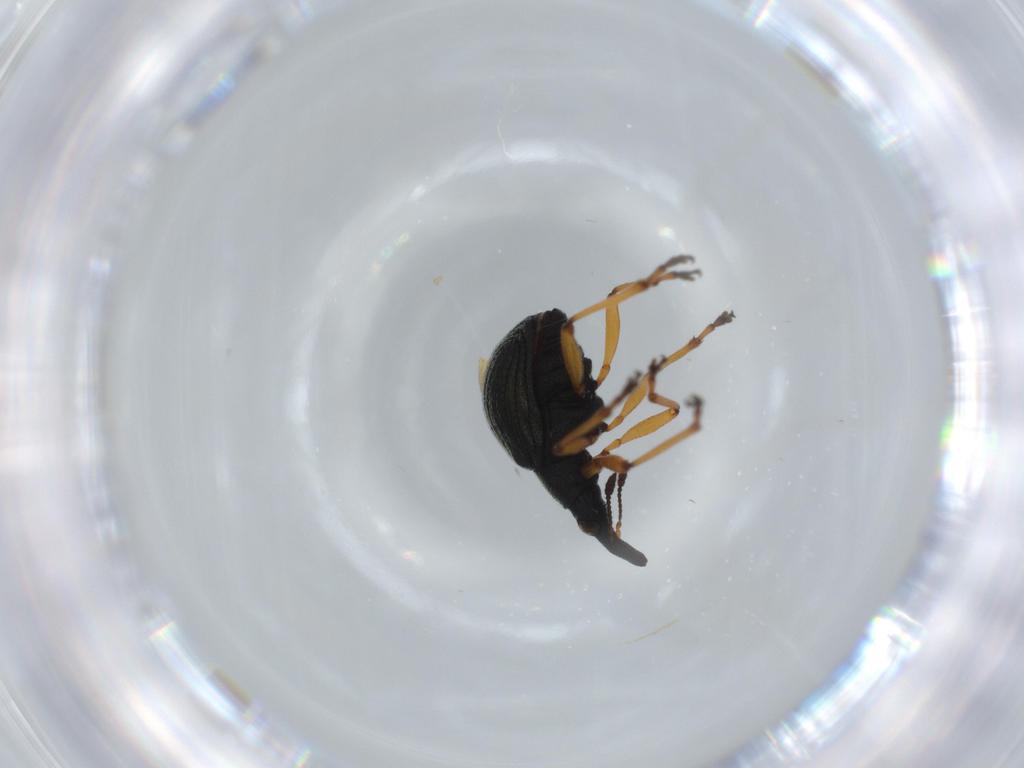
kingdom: Animalia
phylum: Arthropoda
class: Insecta
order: Coleoptera
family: Brentidae
